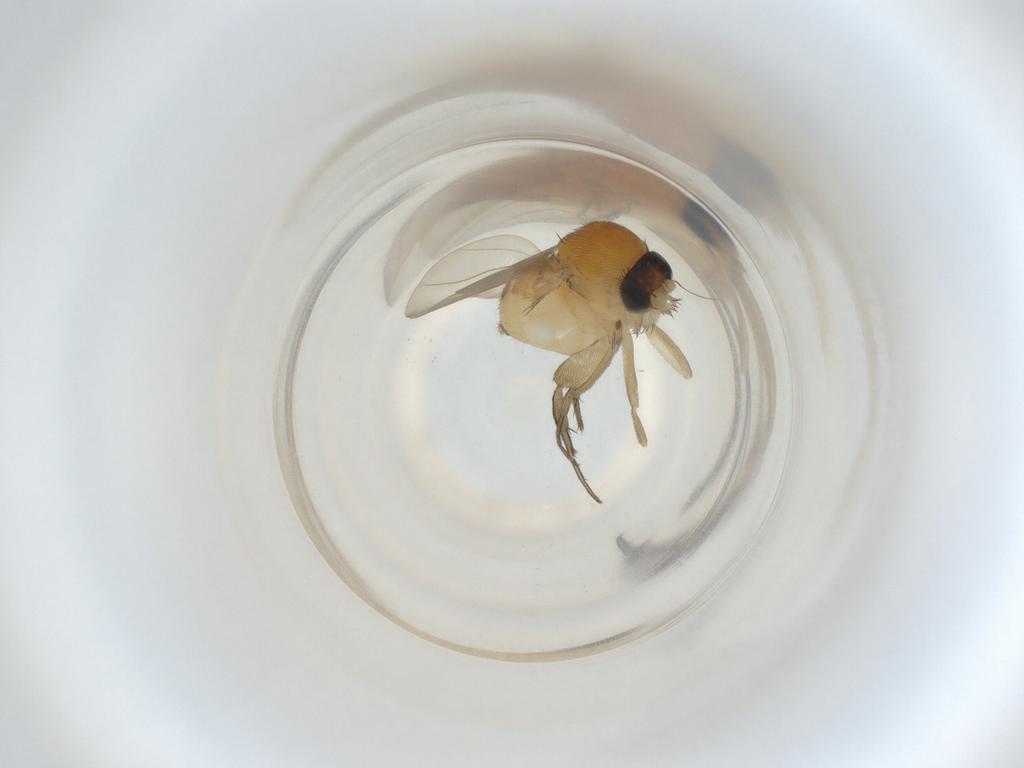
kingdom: Animalia
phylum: Arthropoda
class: Insecta
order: Diptera
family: Phoridae
